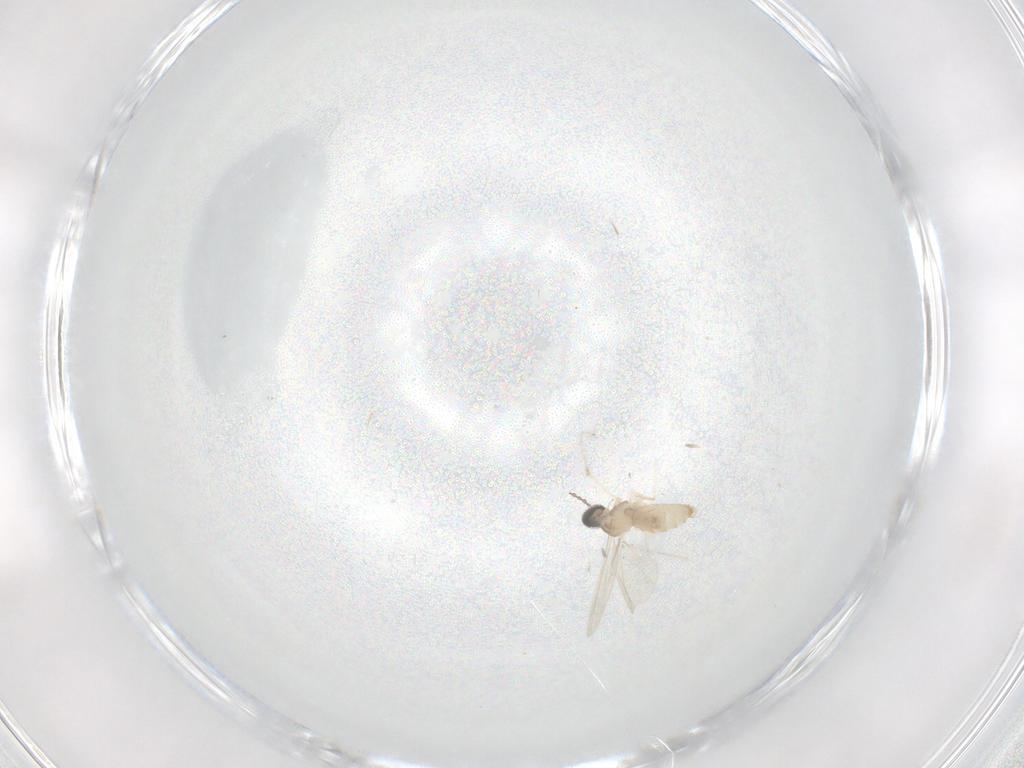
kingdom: Animalia
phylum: Arthropoda
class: Insecta
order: Diptera
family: Cecidomyiidae
